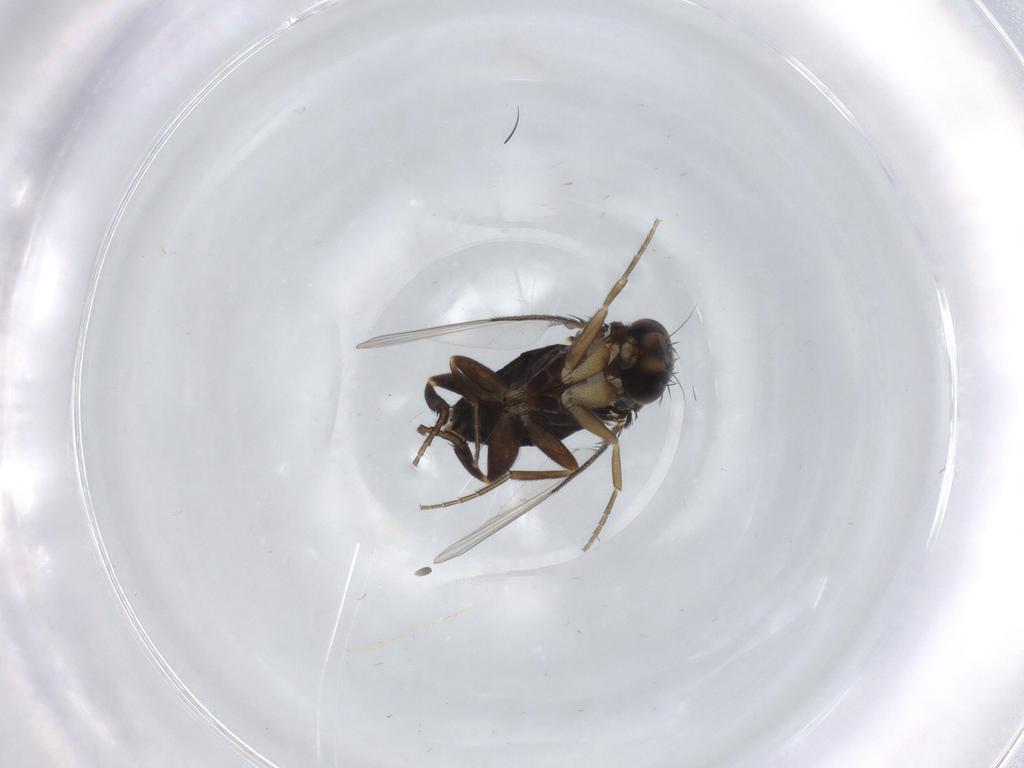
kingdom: Animalia
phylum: Arthropoda
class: Insecta
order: Diptera
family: Phoridae
